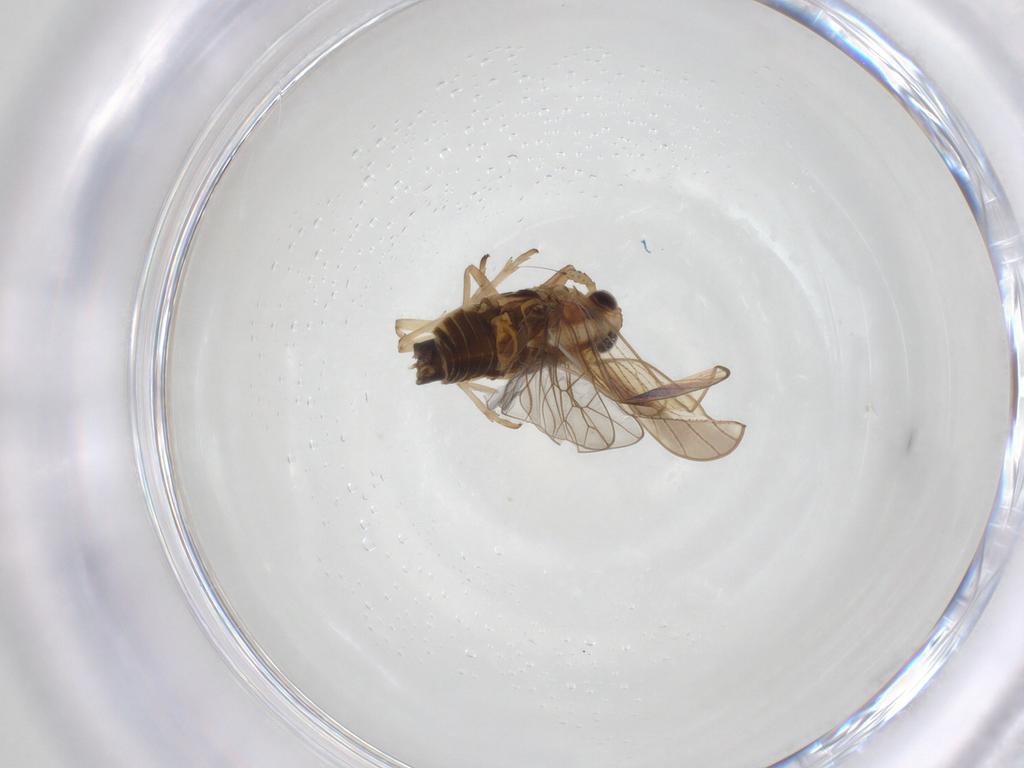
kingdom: Animalia
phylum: Arthropoda
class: Insecta
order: Hemiptera
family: Delphacidae
